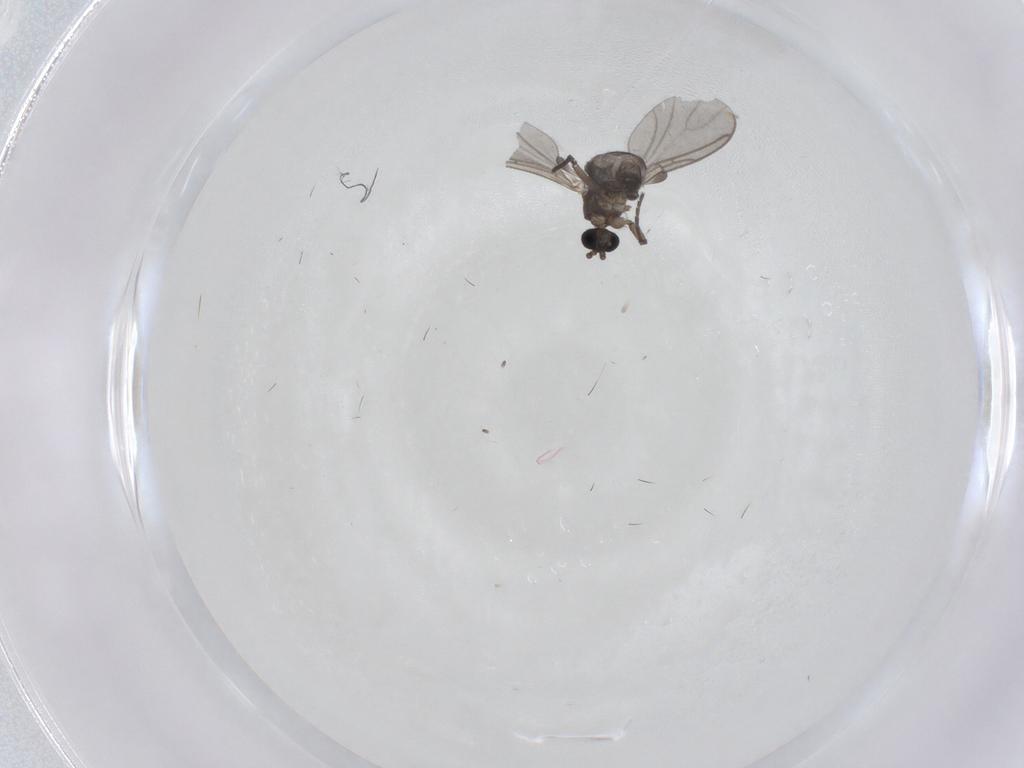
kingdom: Animalia
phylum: Arthropoda
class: Insecta
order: Diptera
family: Sciaridae
